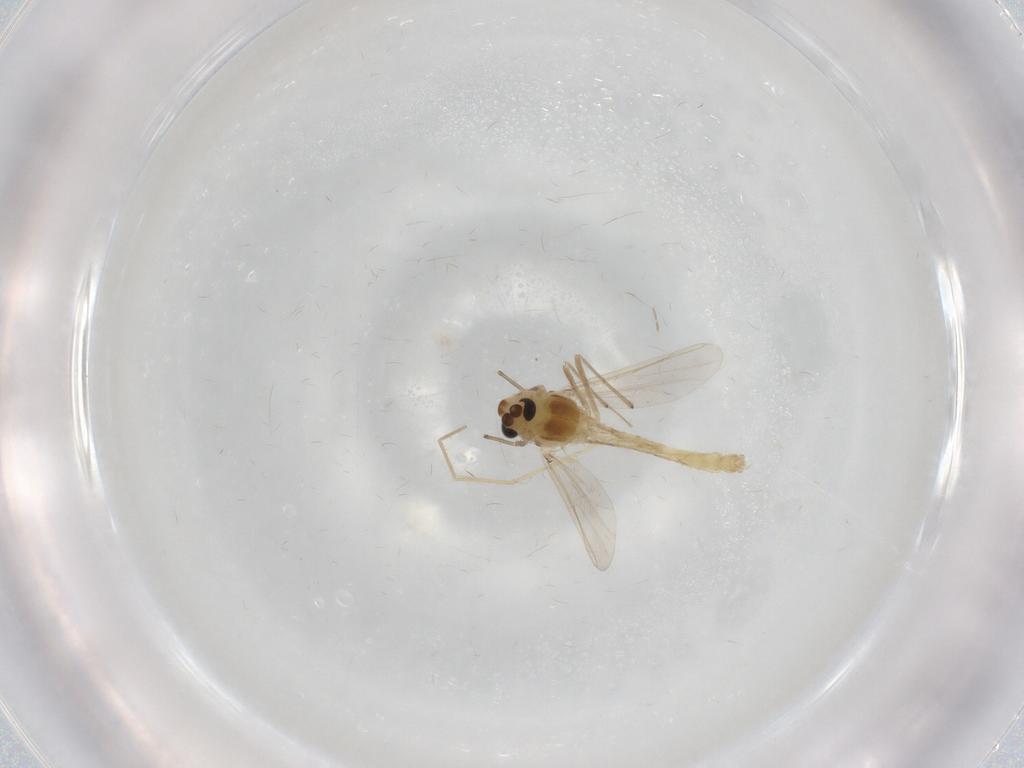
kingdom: Animalia
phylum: Arthropoda
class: Insecta
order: Diptera
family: Chironomidae
